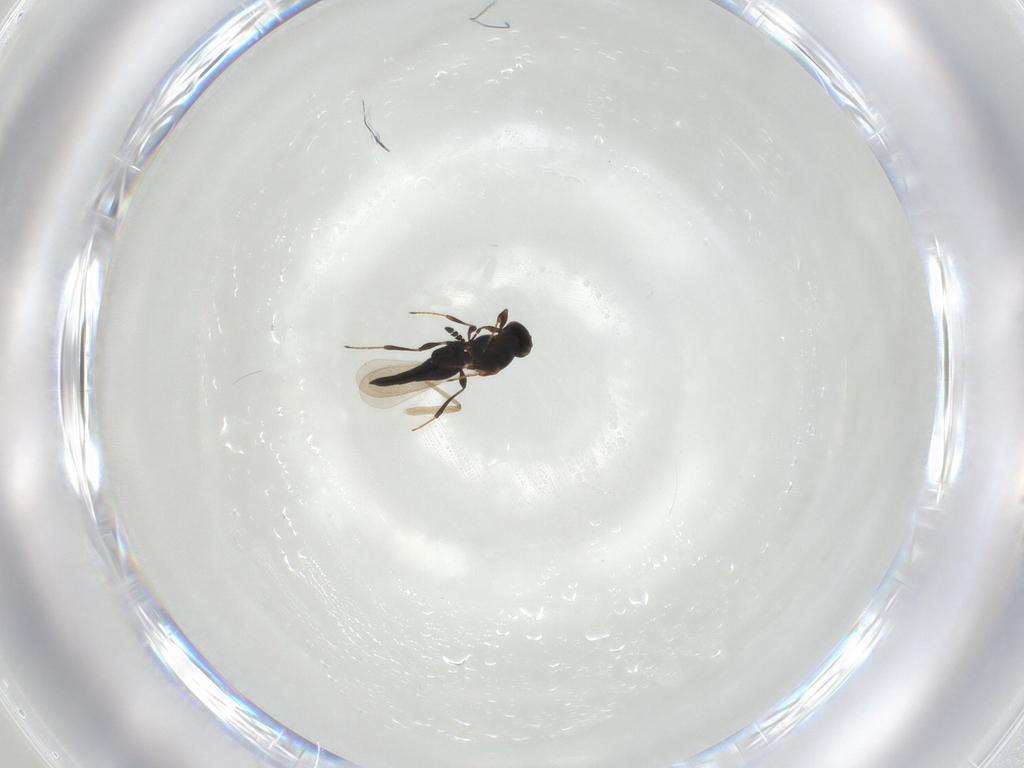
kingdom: Animalia
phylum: Arthropoda
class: Insecta
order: Hymenoptera
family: Platygastridae
